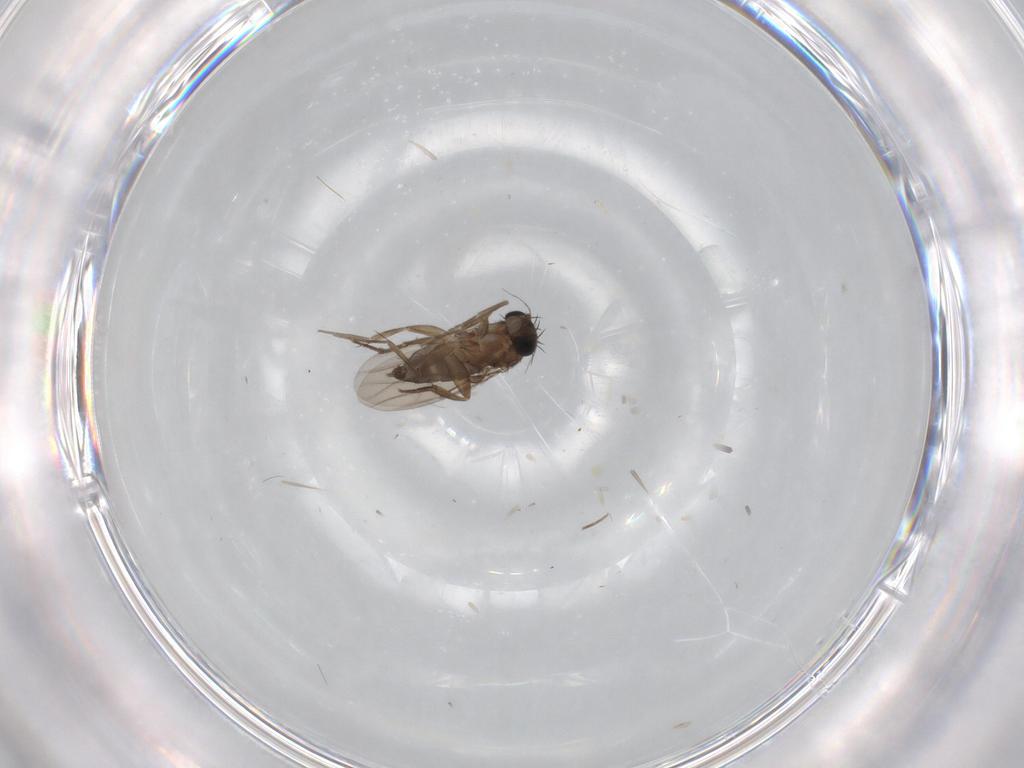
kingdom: Animalia
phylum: Arthropoda
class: Insecta
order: Diptera
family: Phoridae
